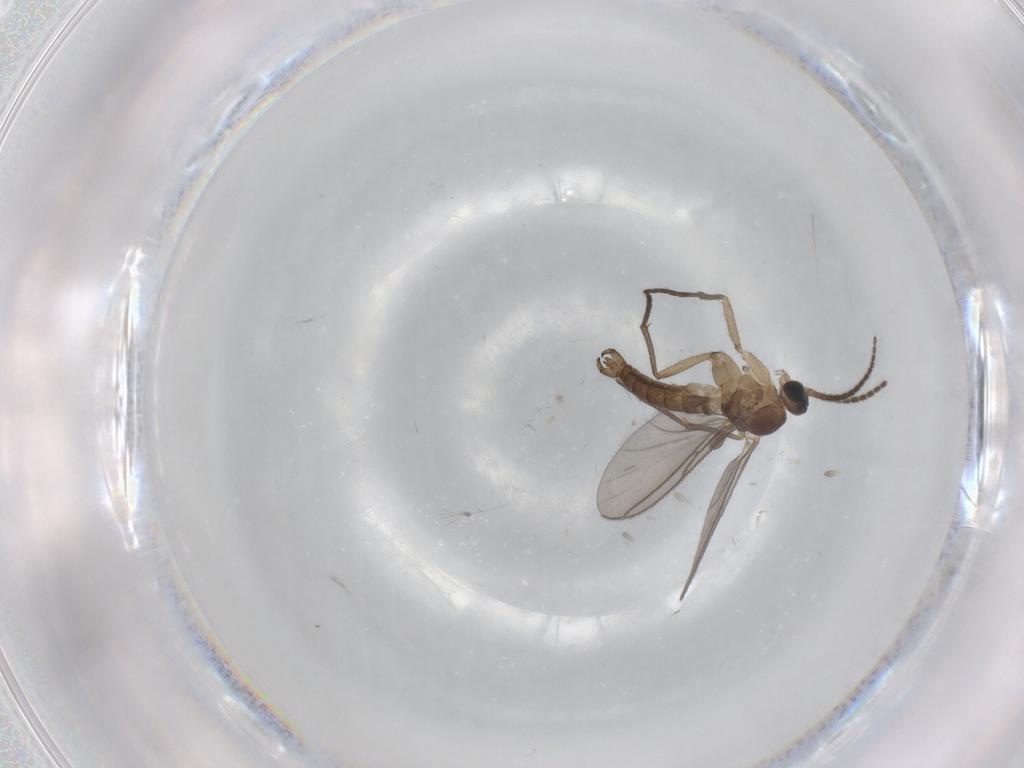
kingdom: Animalia
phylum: Arthropoda
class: Insecta
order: Diptera
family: Sciaridae
